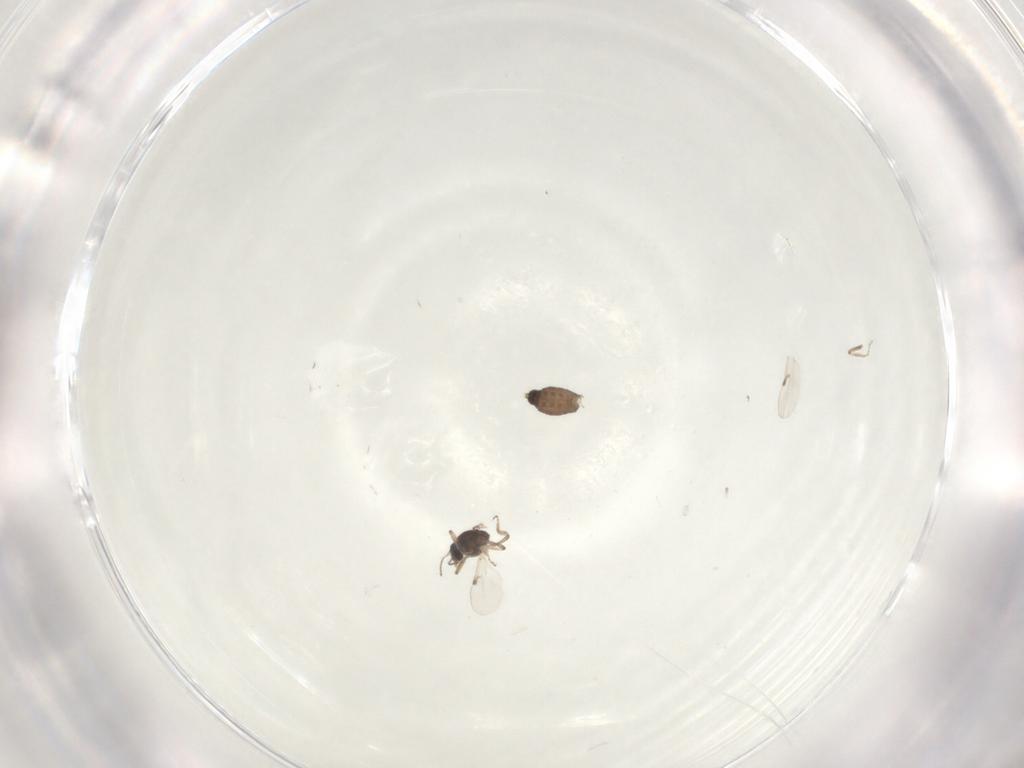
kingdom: Animalia
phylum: Arthropoda
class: Insecta
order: Diptera
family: Ceratopogonidae
